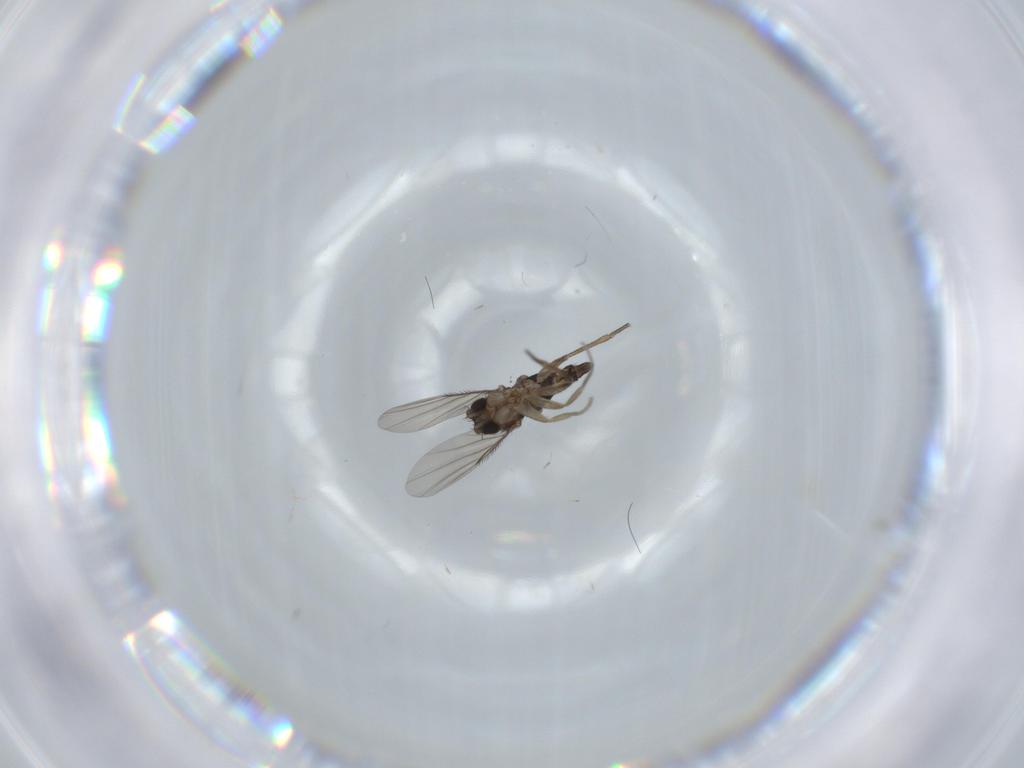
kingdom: Animalia
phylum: Arthropoda
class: Insecta
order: Diptera
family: Phoridae
